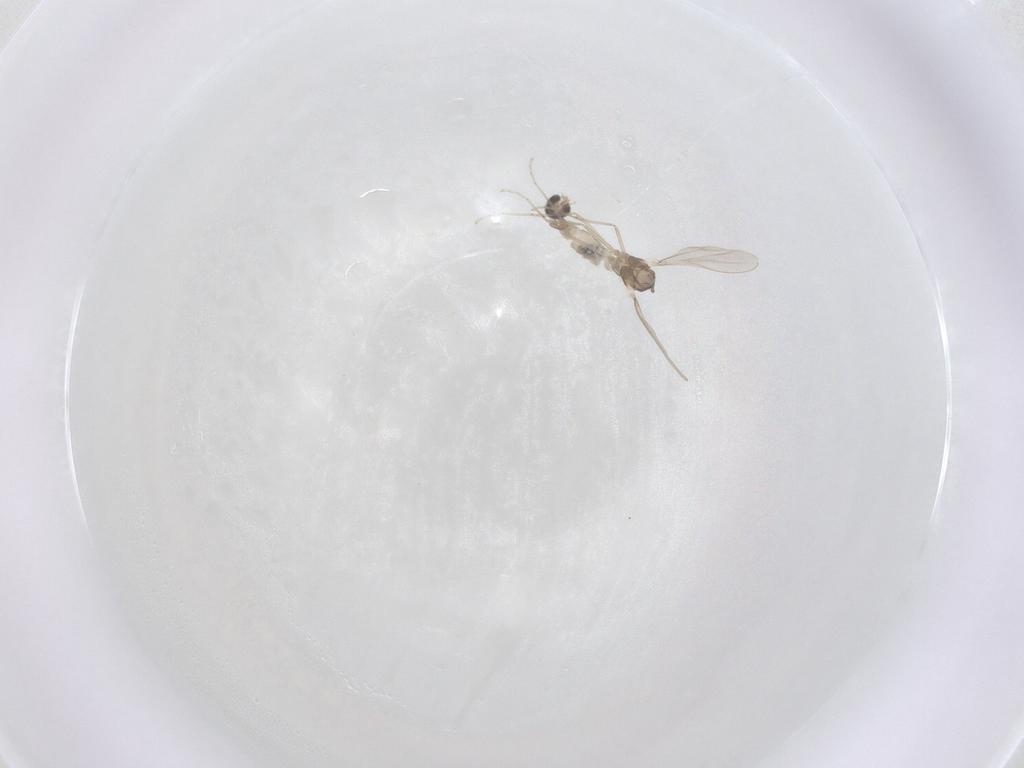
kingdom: Animalia
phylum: Arthropoda
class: Insecta
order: Diptera
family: Cecidomyiidae
